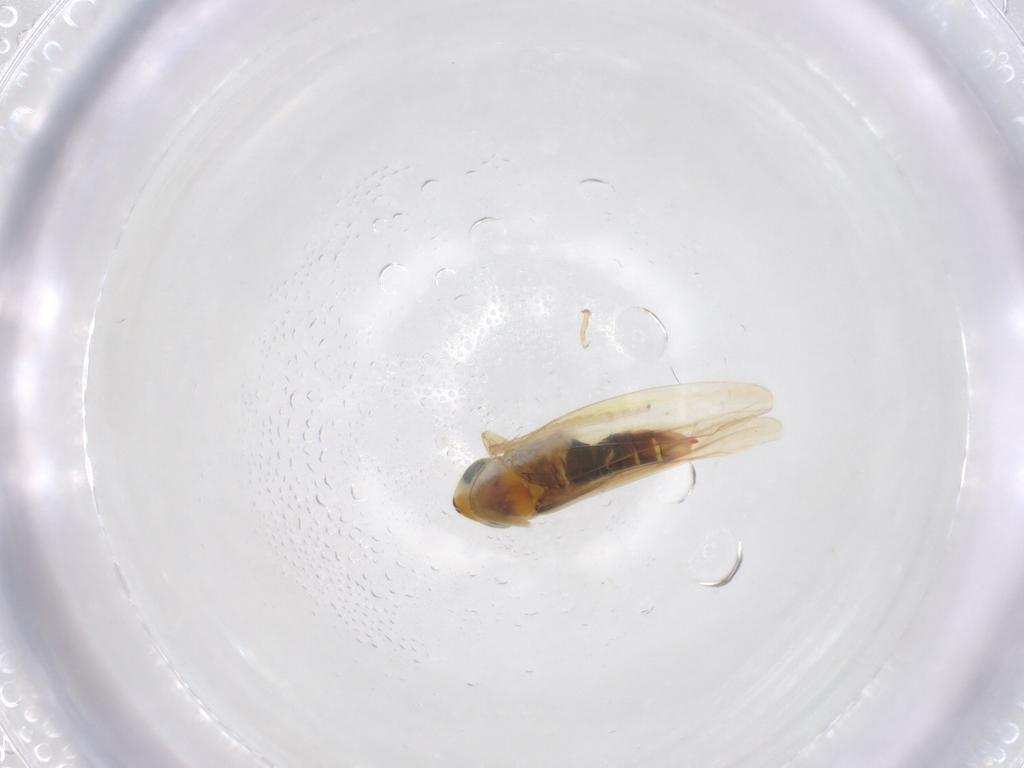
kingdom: Animalia
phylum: Arthropoda
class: Insecta
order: Hemiptera
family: Cicadellidae
